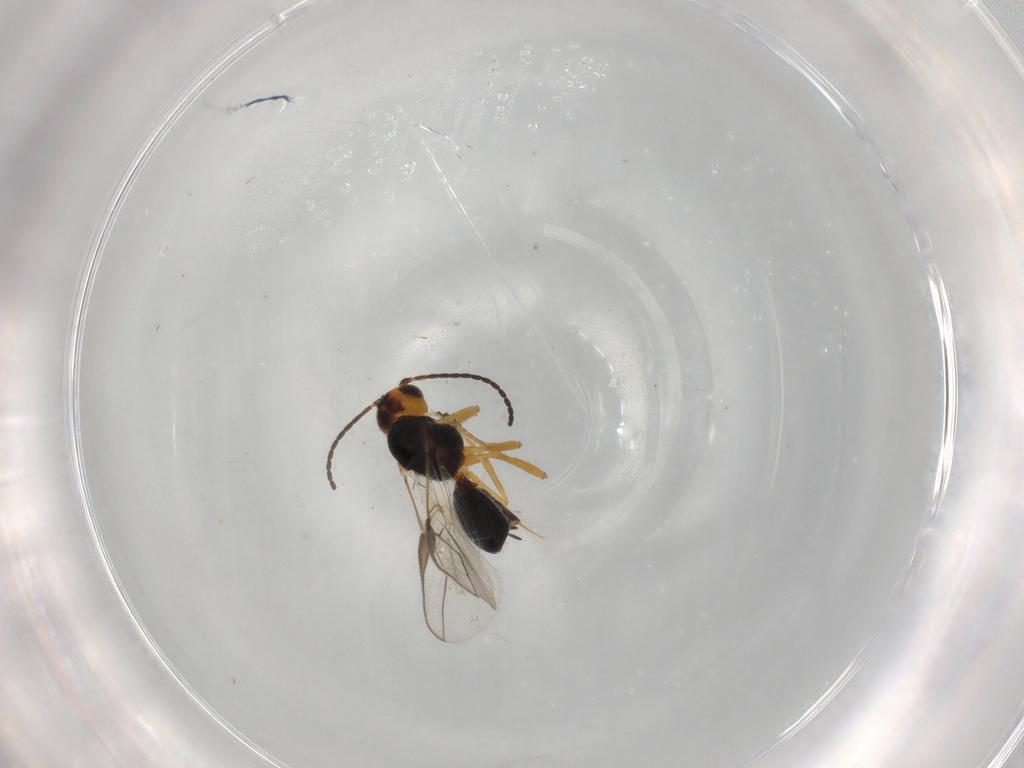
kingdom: Animalia
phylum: Arthropoda
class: Insecta
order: Hymenoptera
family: Braconidae
